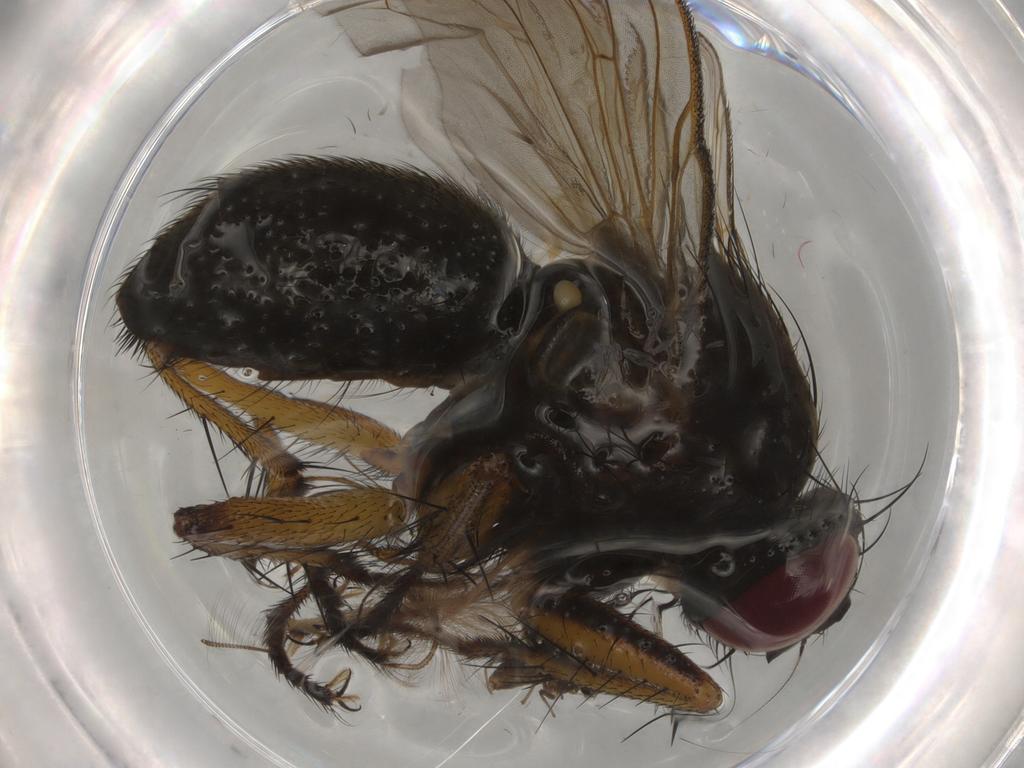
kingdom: Animalia
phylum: Arthropoda
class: Insecta
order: Diptera
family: Muscidae
